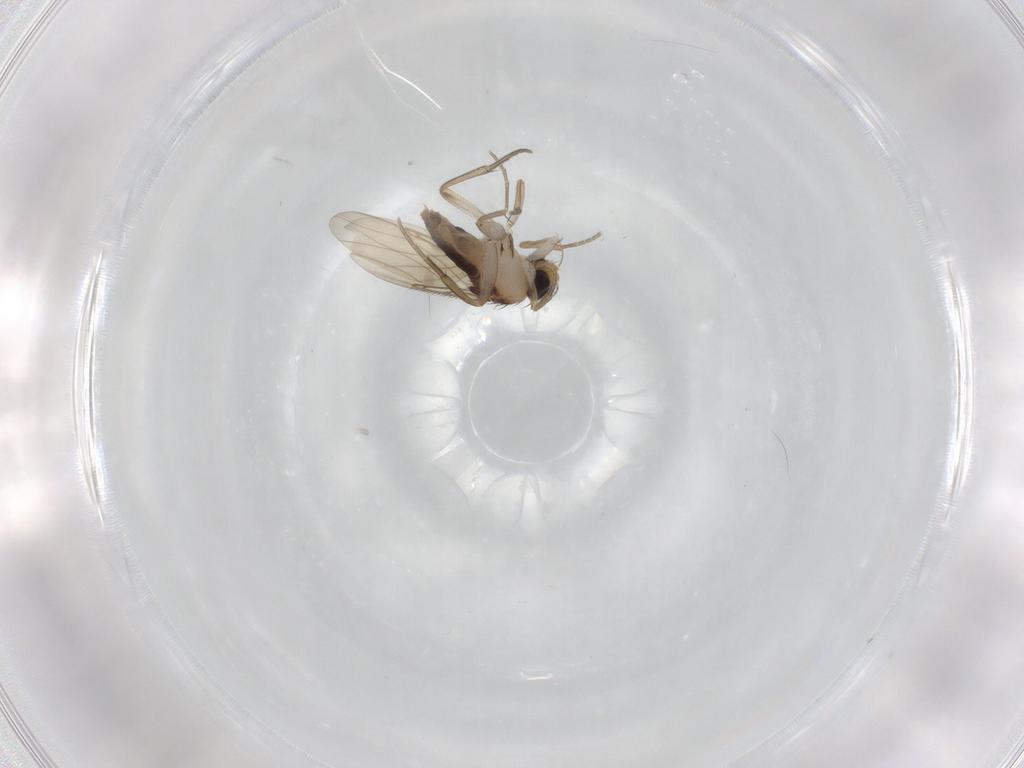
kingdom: Animalia
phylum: Arthropoda
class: Insecta
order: Diptera
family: Phoridae
